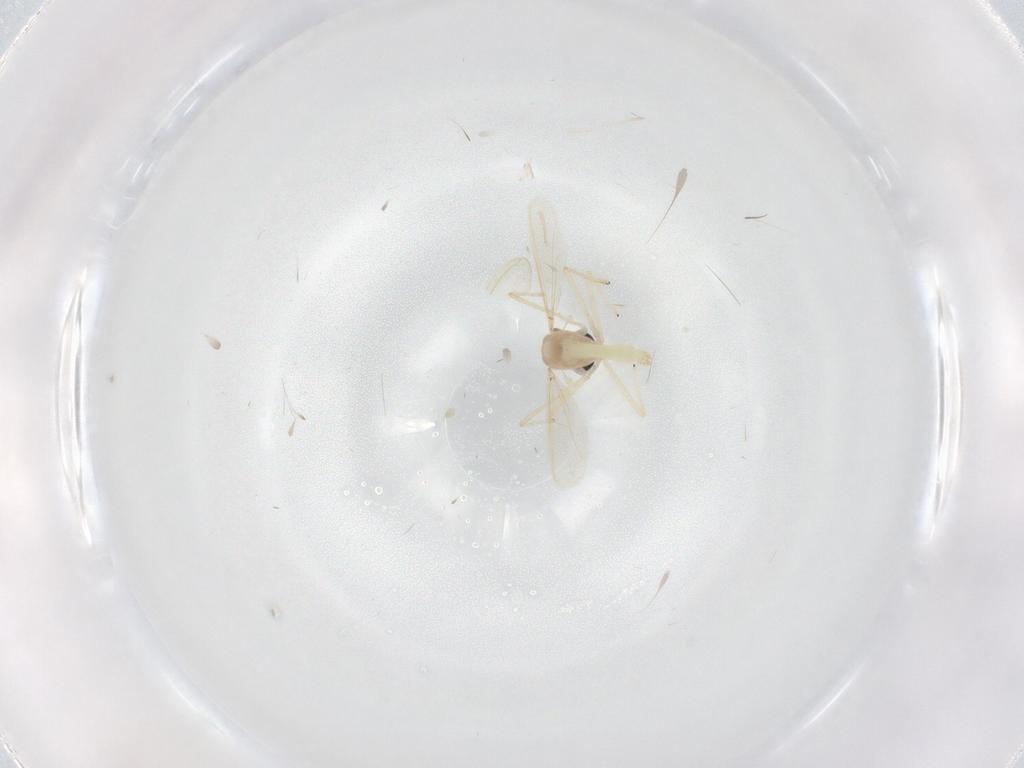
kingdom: Animalia
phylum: Arthropoda
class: Insecta
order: Diptera
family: Chironomidae
